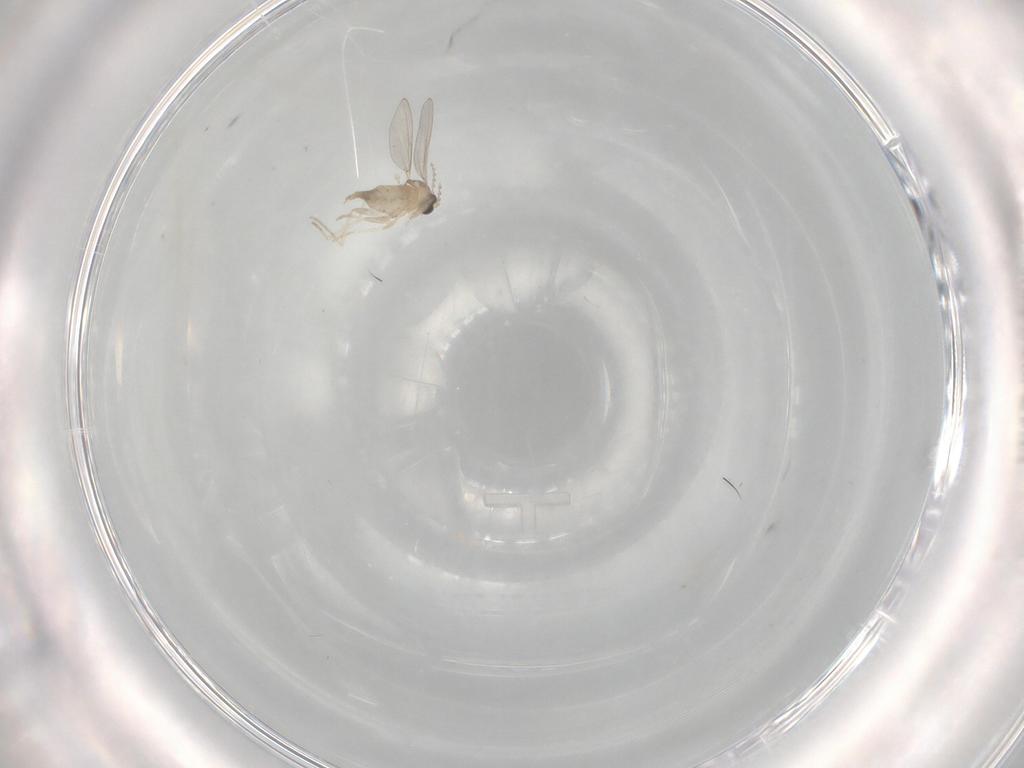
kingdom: Animalia
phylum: Arthropoda
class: Insecta
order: Diptera
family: Cecidomyiidae
